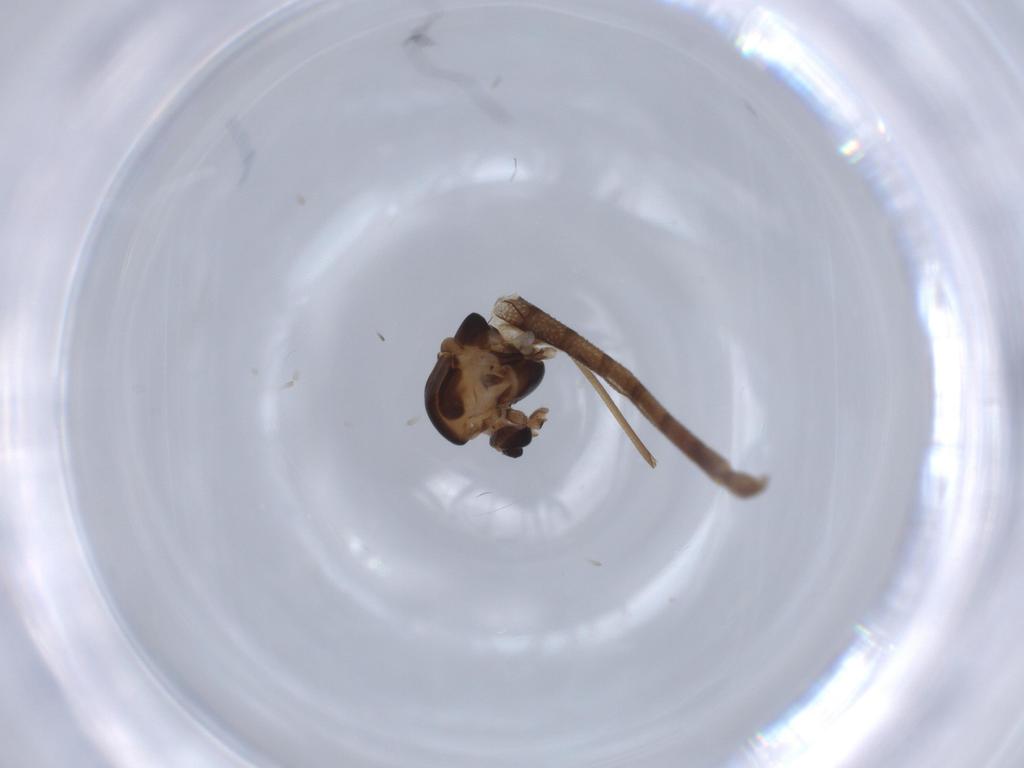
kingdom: Animalia
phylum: Arthropoda
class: Insecta
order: Diptera
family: Chironomidae
